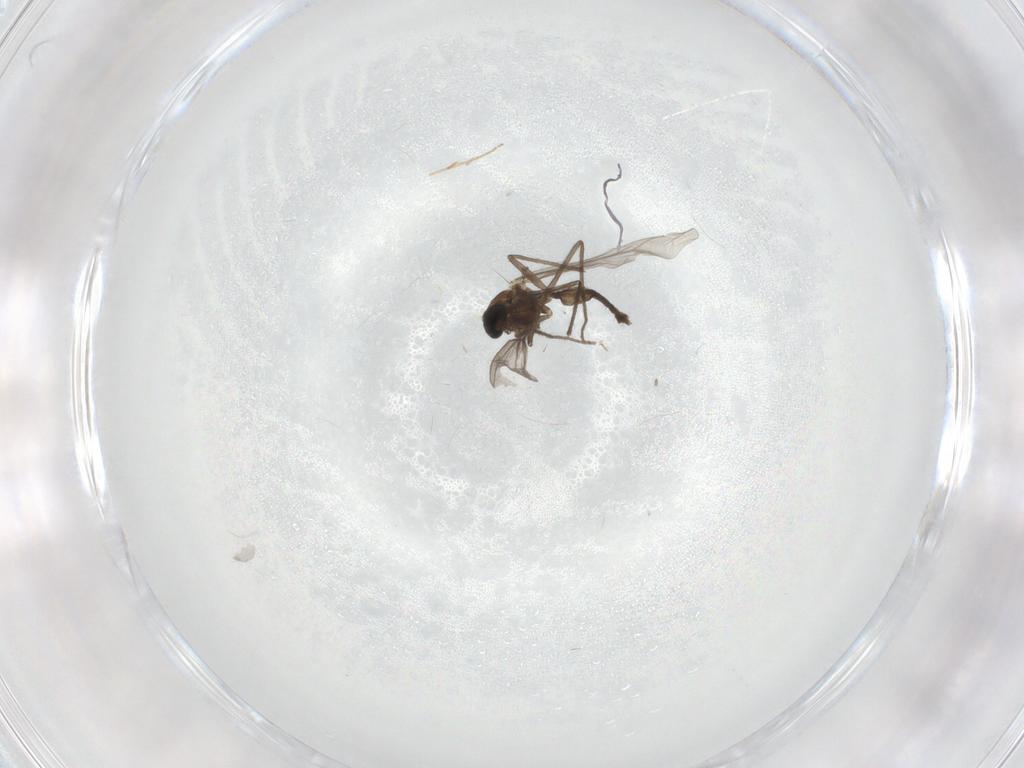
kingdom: Animalia
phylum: Arthropoda
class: Insecta
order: Diptera
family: Chironomidae
